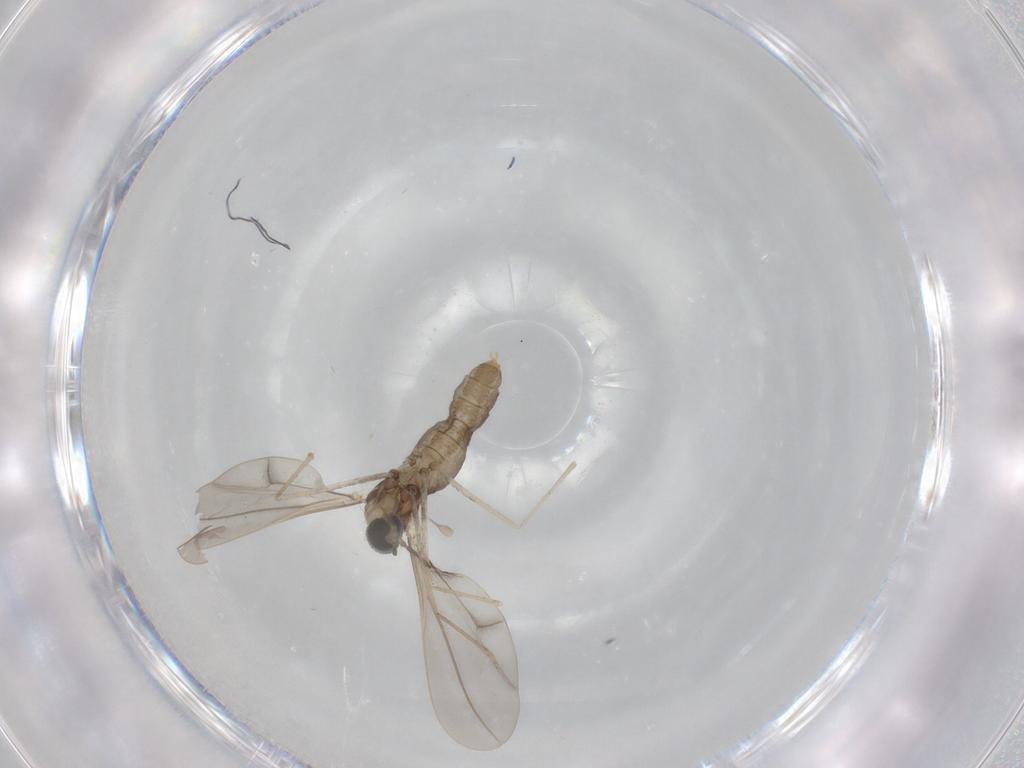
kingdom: Animalia
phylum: Arthropoda
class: Insecta
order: Diptera
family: Cecidomyiidae
